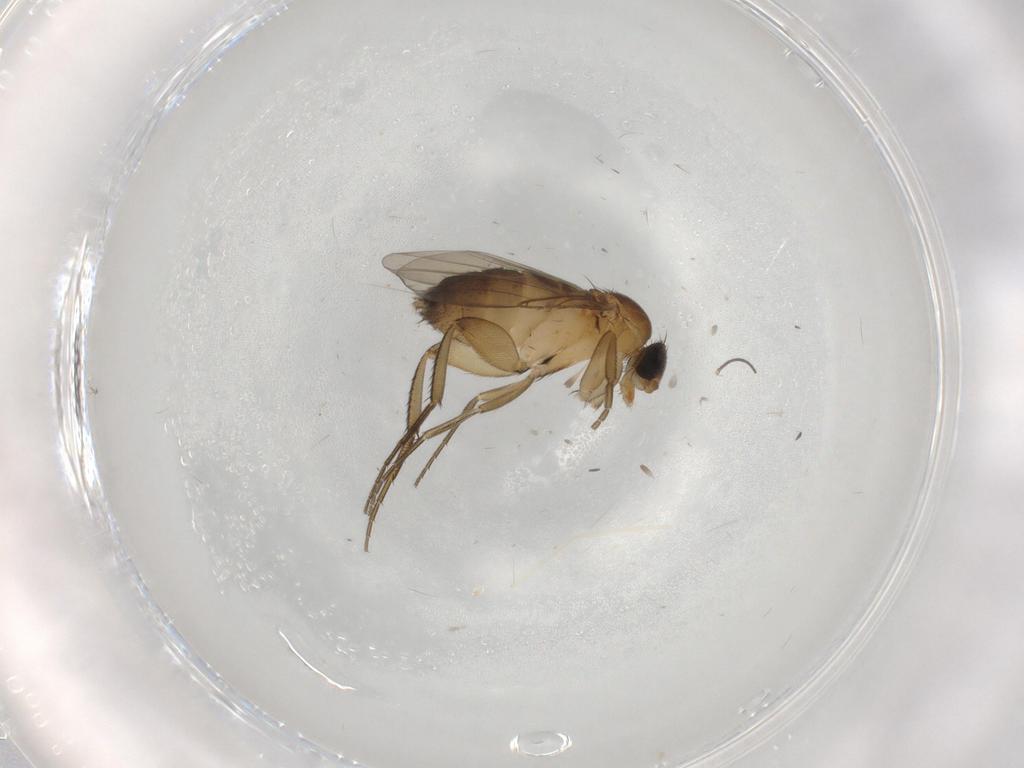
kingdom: Animalia
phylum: Arthropoda
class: Insecta
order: Diptera
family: Phoridae
